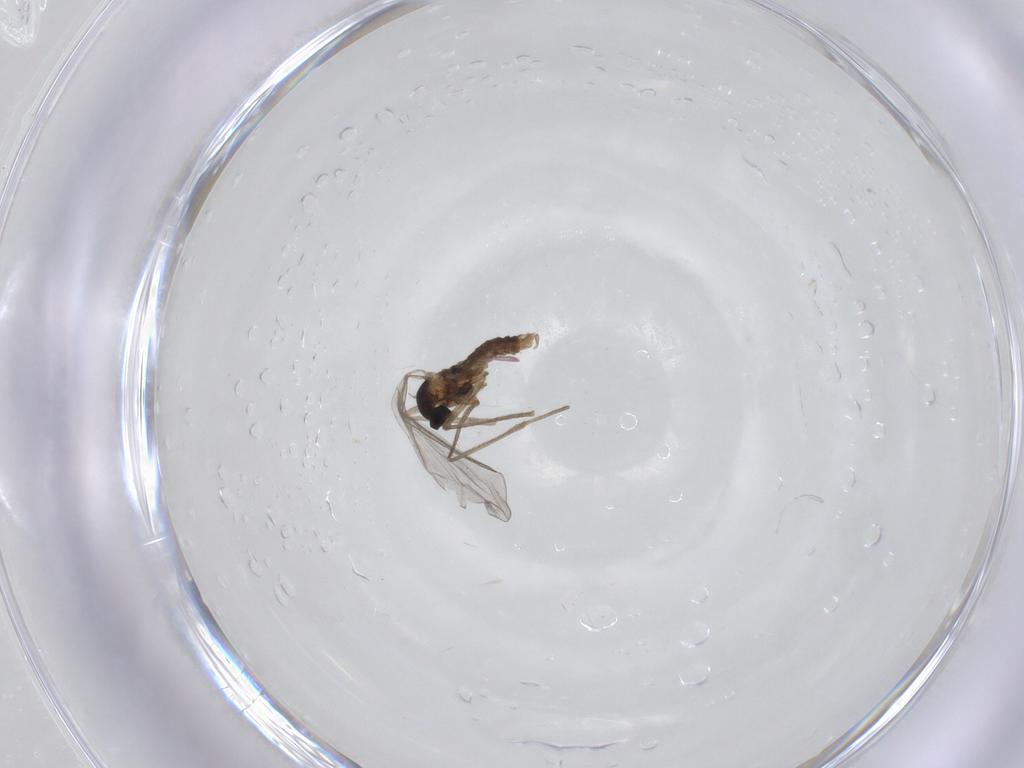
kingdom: Animalia
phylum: Arthropoda
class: Insecta
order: Diptera
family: Cecidomyiidae
